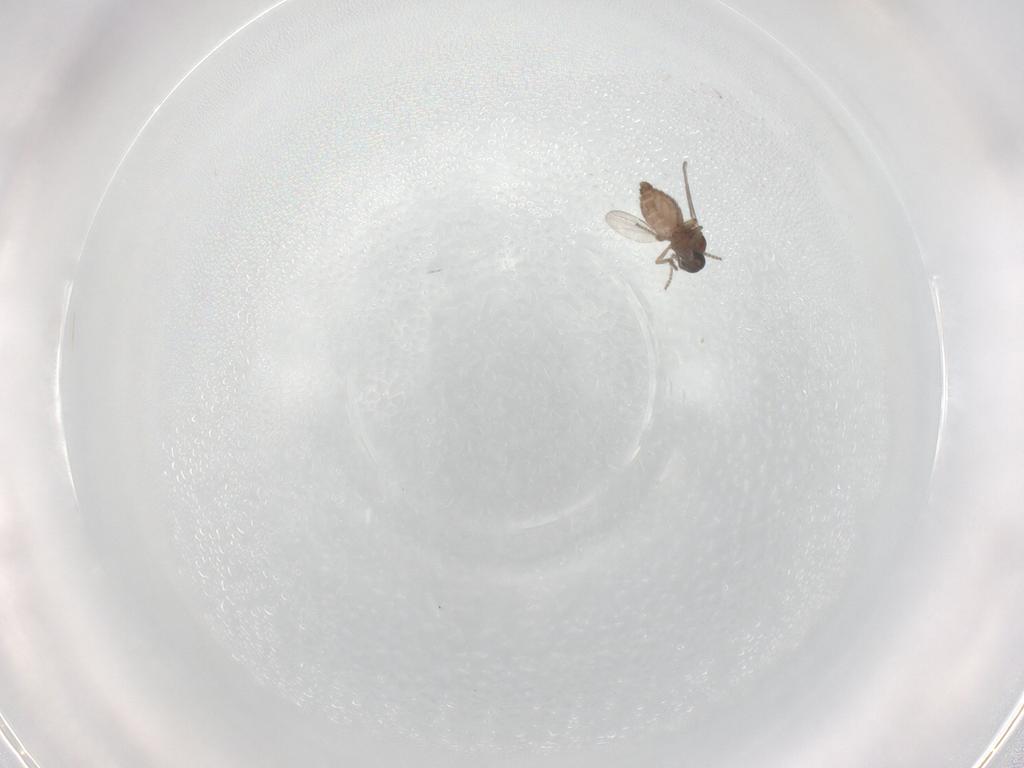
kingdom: Animalia
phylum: Arthropoda
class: Insecta
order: Diptera
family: Ceratopogonidae
